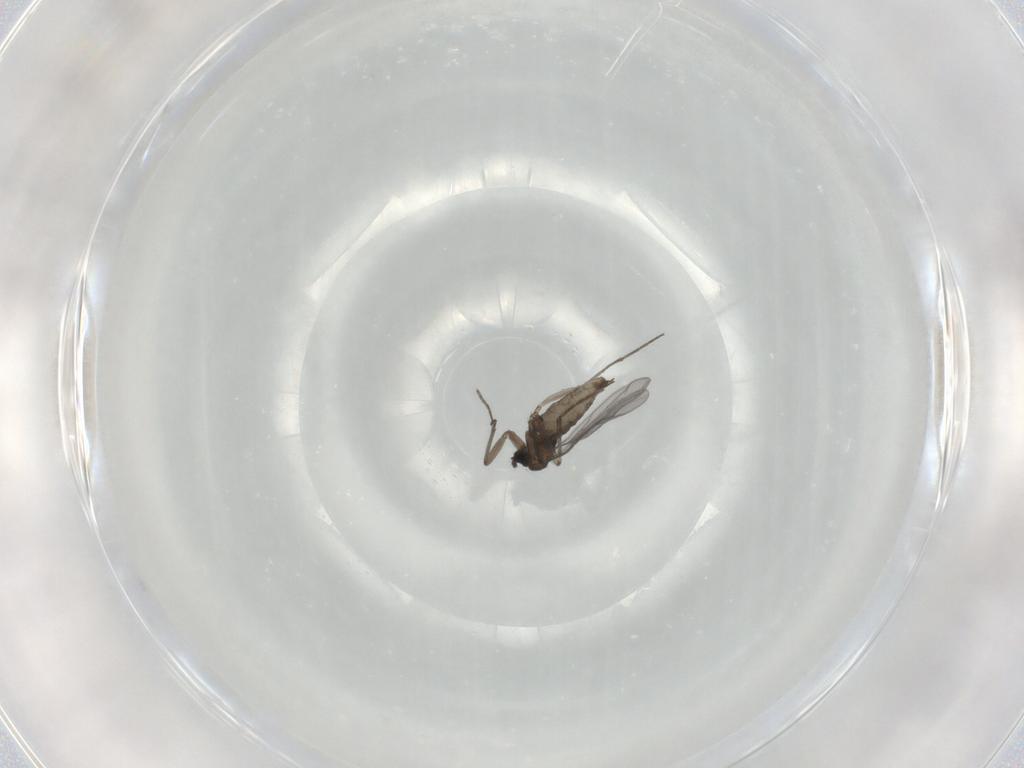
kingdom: Animalia
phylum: Arthropoda
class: Insecta
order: Diptera
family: Sciaridae
